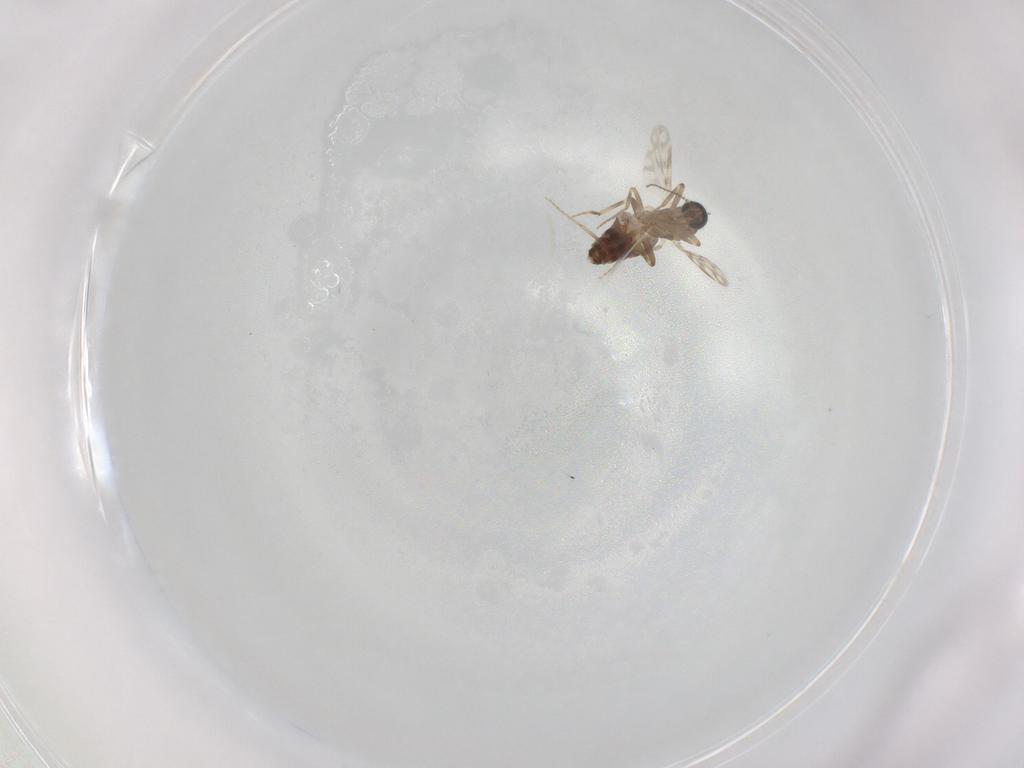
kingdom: Animalia
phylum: Arthropoda
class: Insecta
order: Diptera
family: Ceratopogonidae
